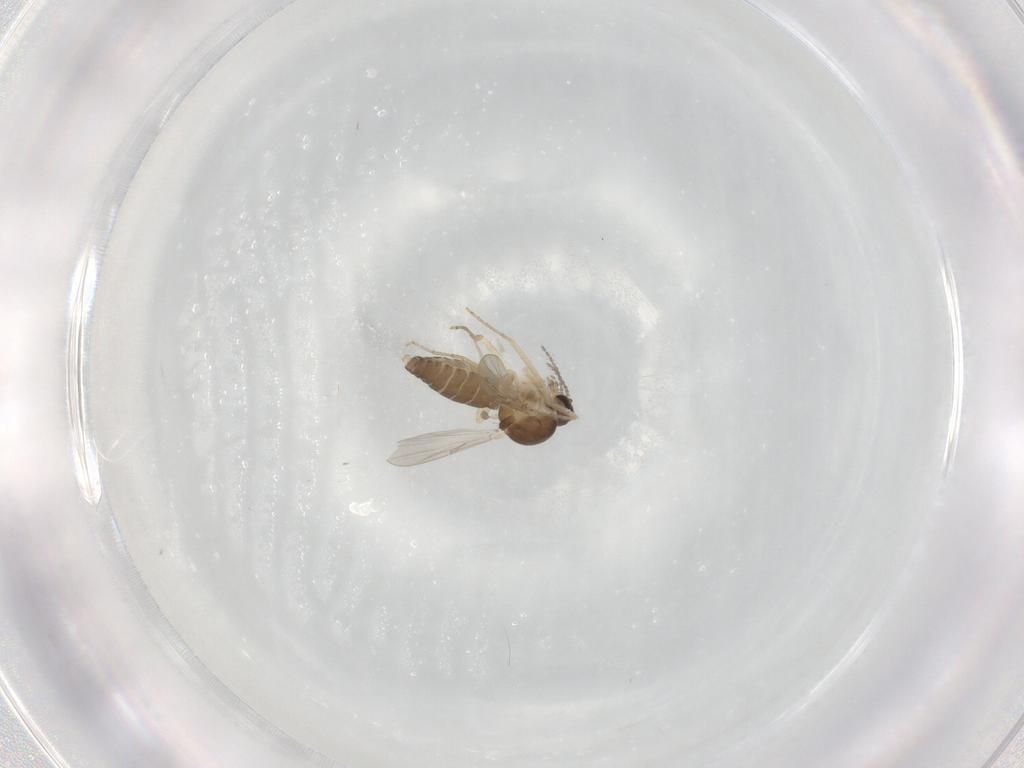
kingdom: Animalia
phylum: Arthropoda
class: Insecta
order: Diptera
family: Ceratopogonidae
